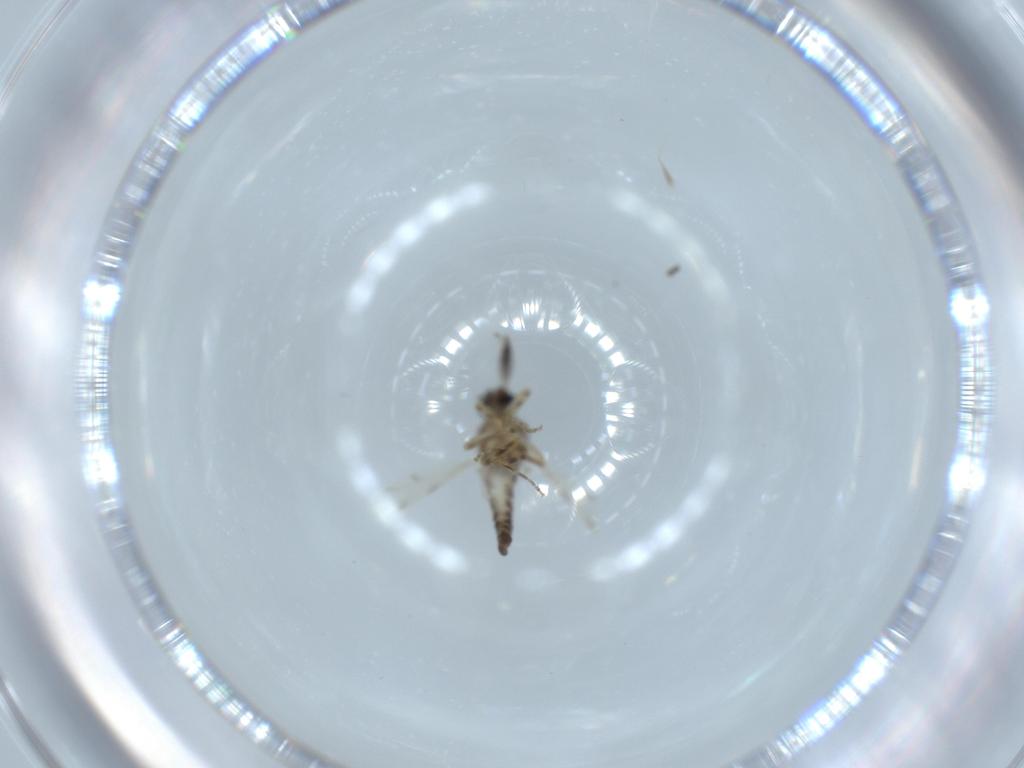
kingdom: Animalia
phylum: Arthropoda
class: Insecta
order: Diptera
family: Ceratopogonidae
